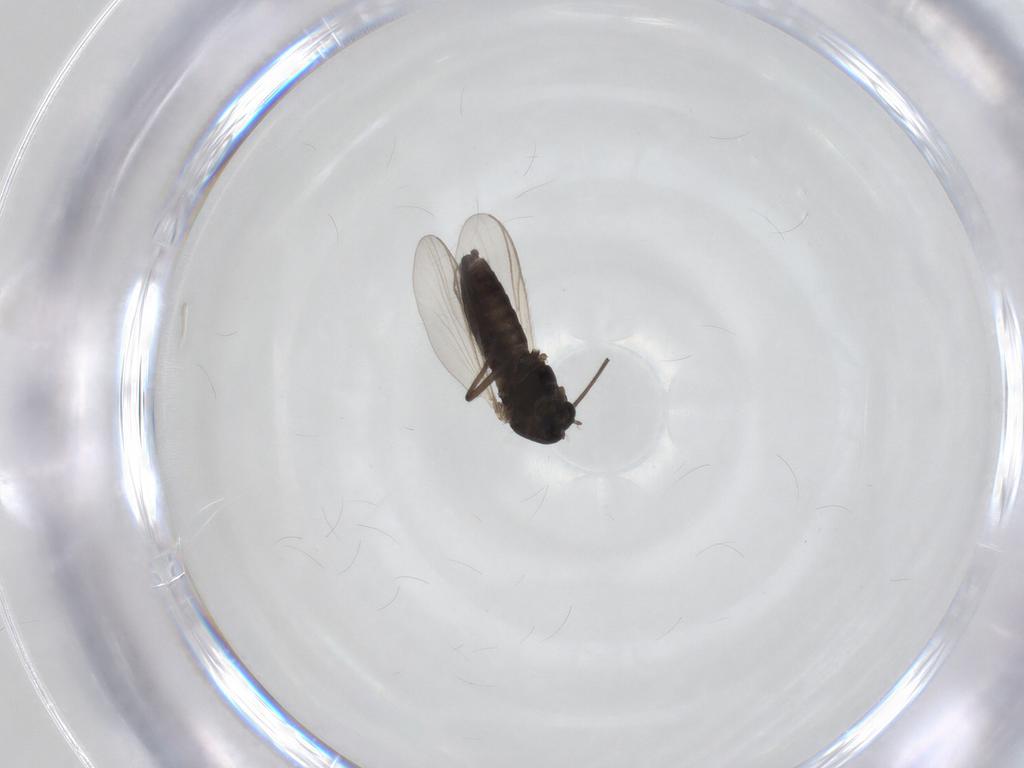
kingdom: Animalia
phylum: Arthropoda
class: Insecta
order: Diptera
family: Chironomidae
